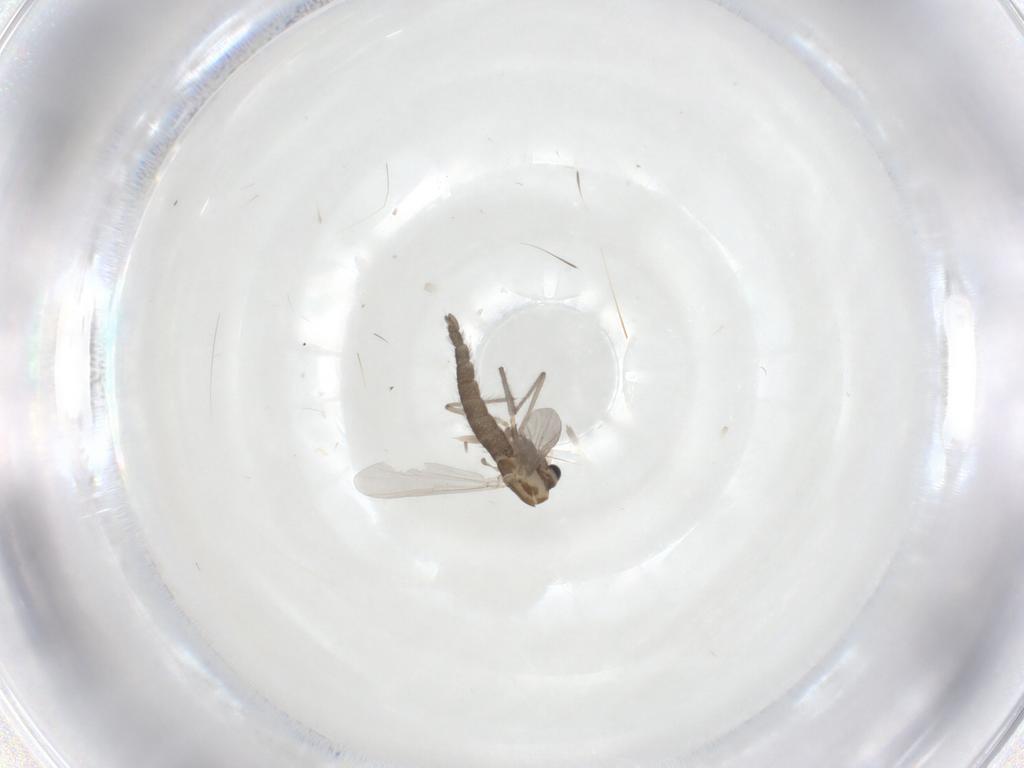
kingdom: Animalia
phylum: Arthropoda
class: Insecta
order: Diptera
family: Chironomidae
